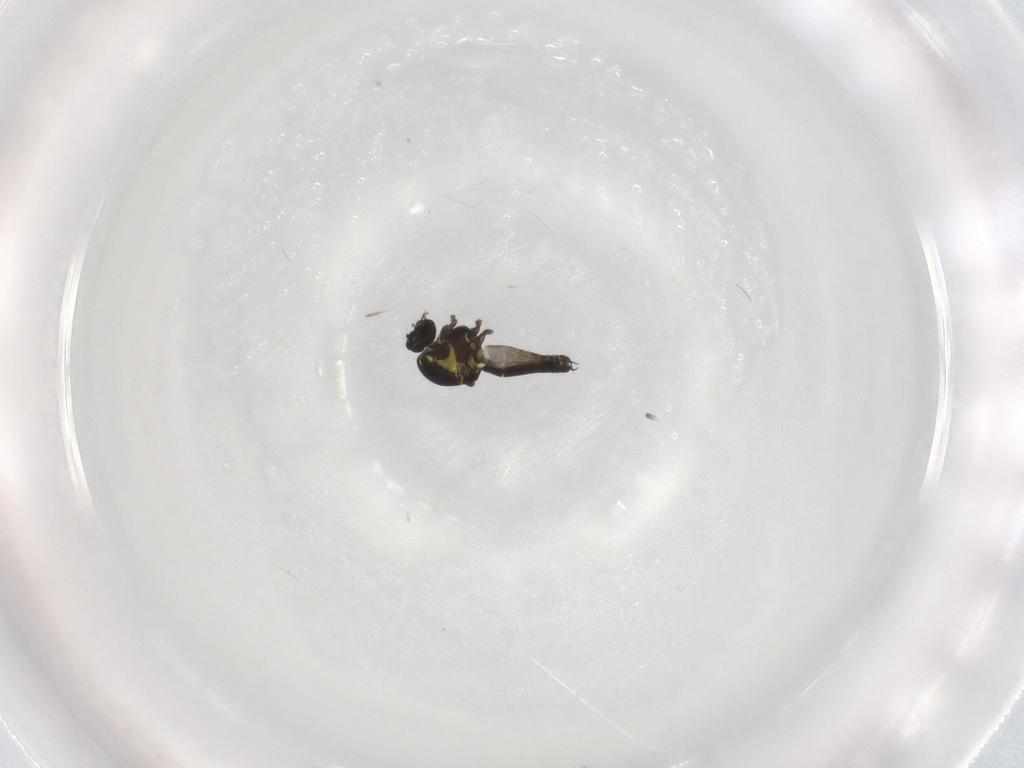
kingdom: Animalia
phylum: Arthropoda
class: Insecta
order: Diptera
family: Ceratopogonidae
